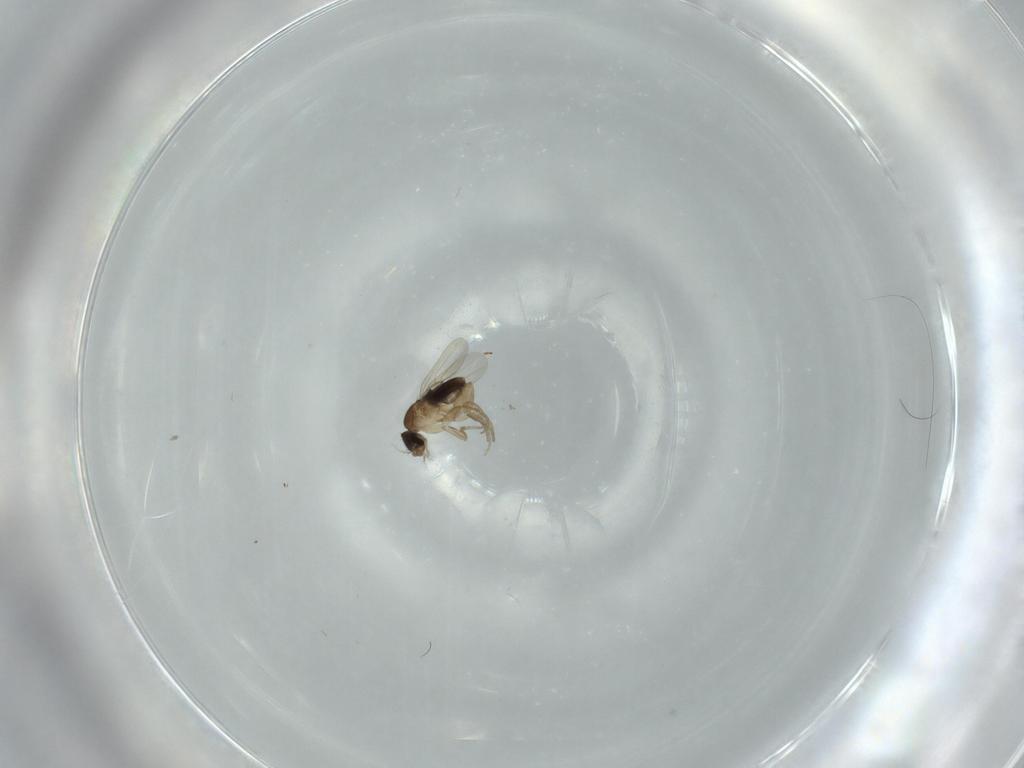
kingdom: Animalia
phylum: Arthropoda
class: Insecta
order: Diptera
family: Phoridae
